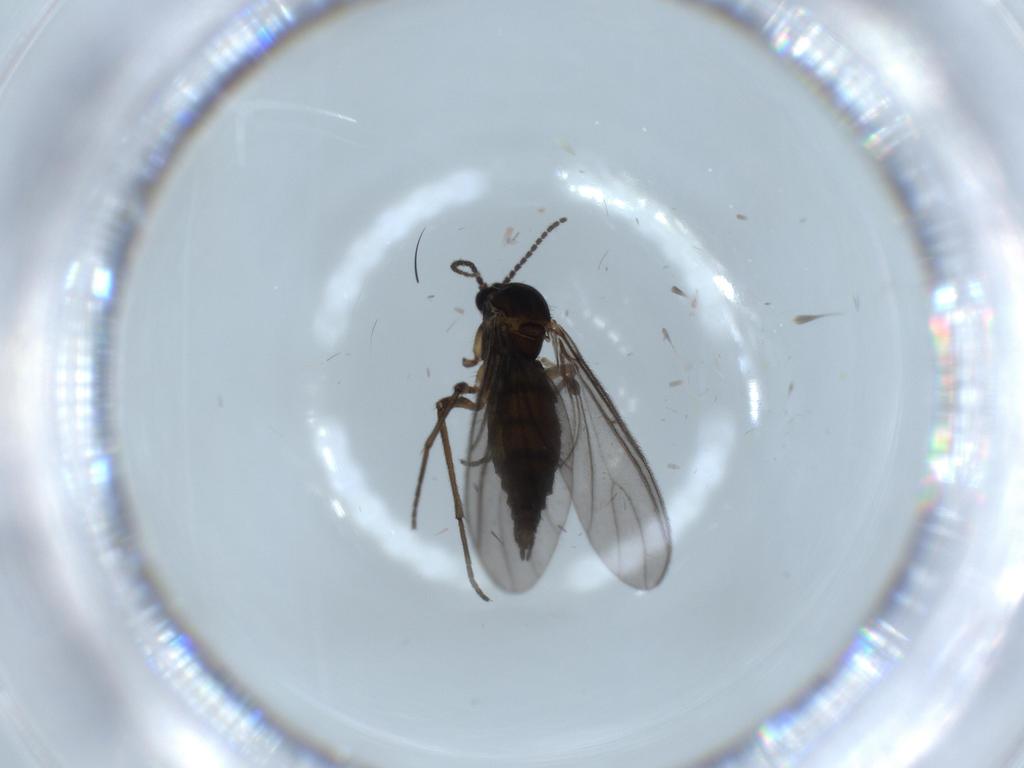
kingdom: Animalia
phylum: Arthropoda
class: Insecta
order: Diptera
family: Sciaridae
